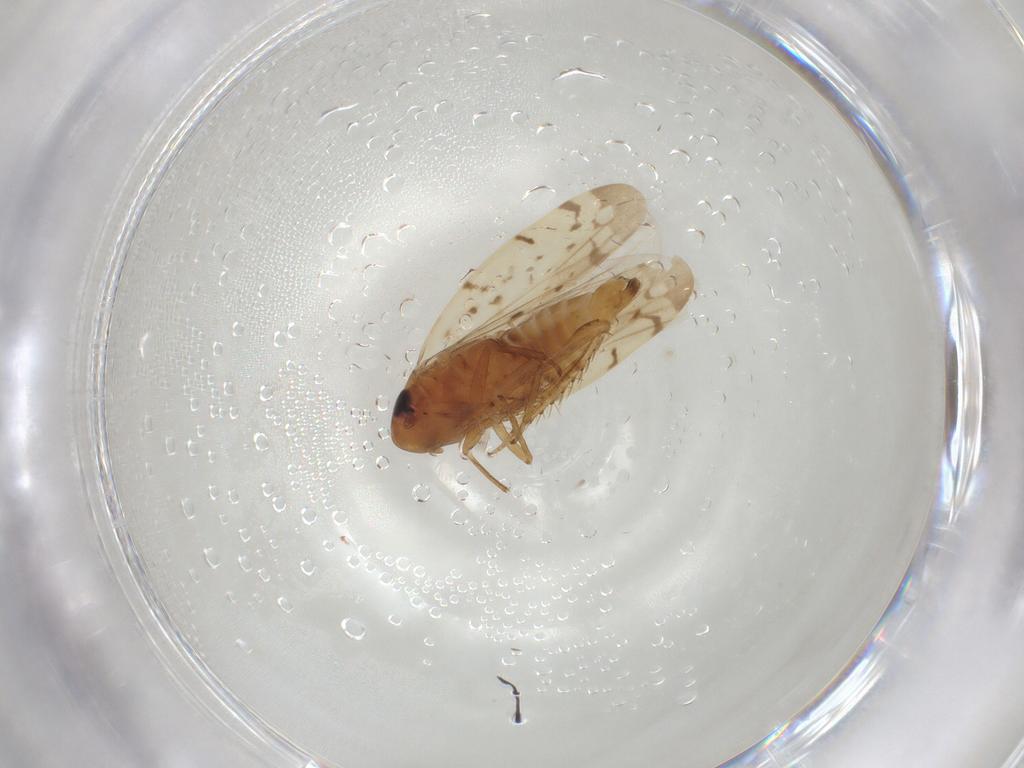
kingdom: Animalia
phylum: Arthropoda
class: Insecta
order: Hemiptera
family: Cicadellidae
